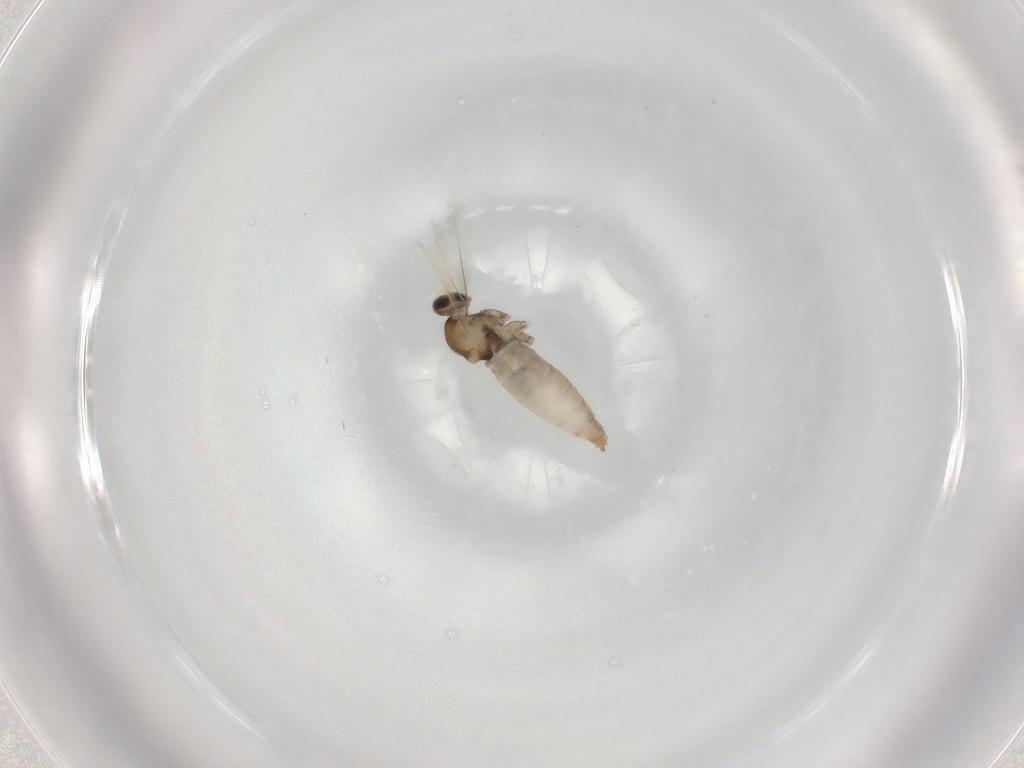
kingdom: Animalia
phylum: Arthropoda
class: Insecta
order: Diptera
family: Cecidomyiidae
